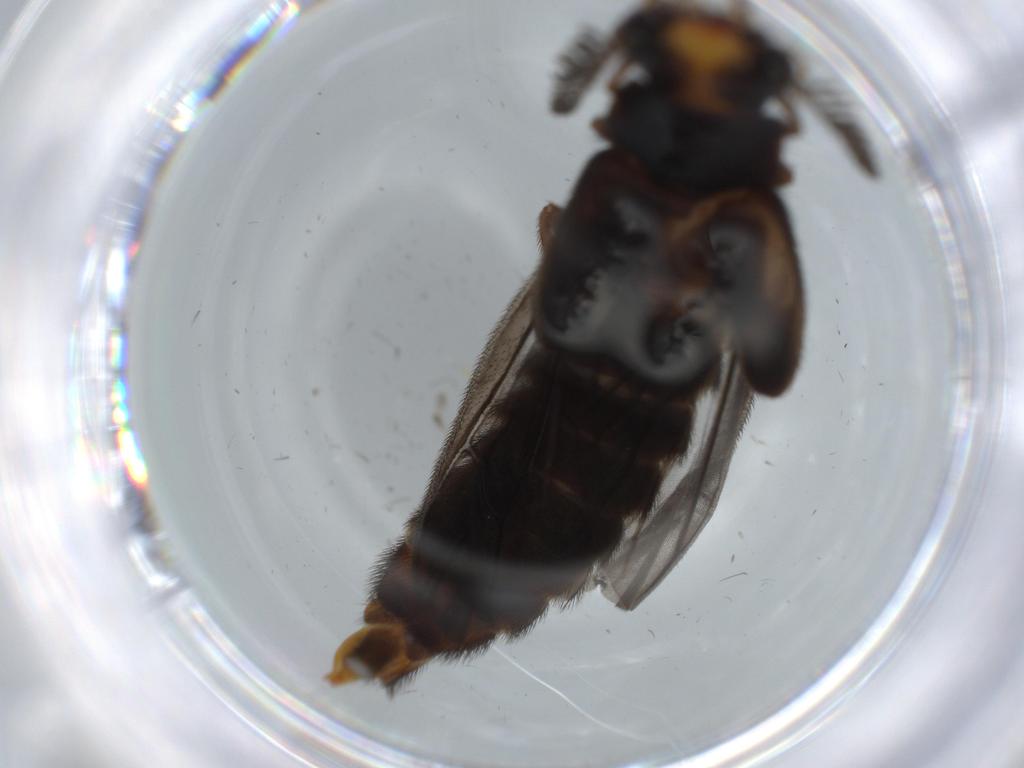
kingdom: Animalia
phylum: Arthropoda
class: Insecta
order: Coleoptera
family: Phengodidae
